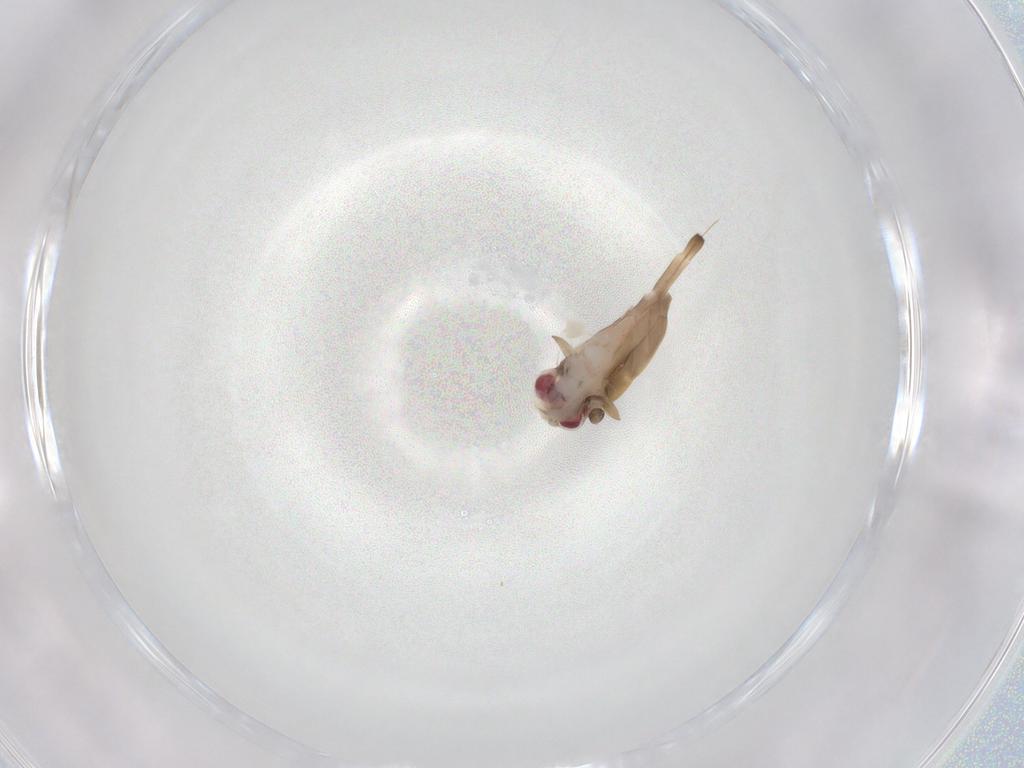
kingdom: Animalia
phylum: Arthropoda
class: Insecta
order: Hemiptera
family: Achilidae
